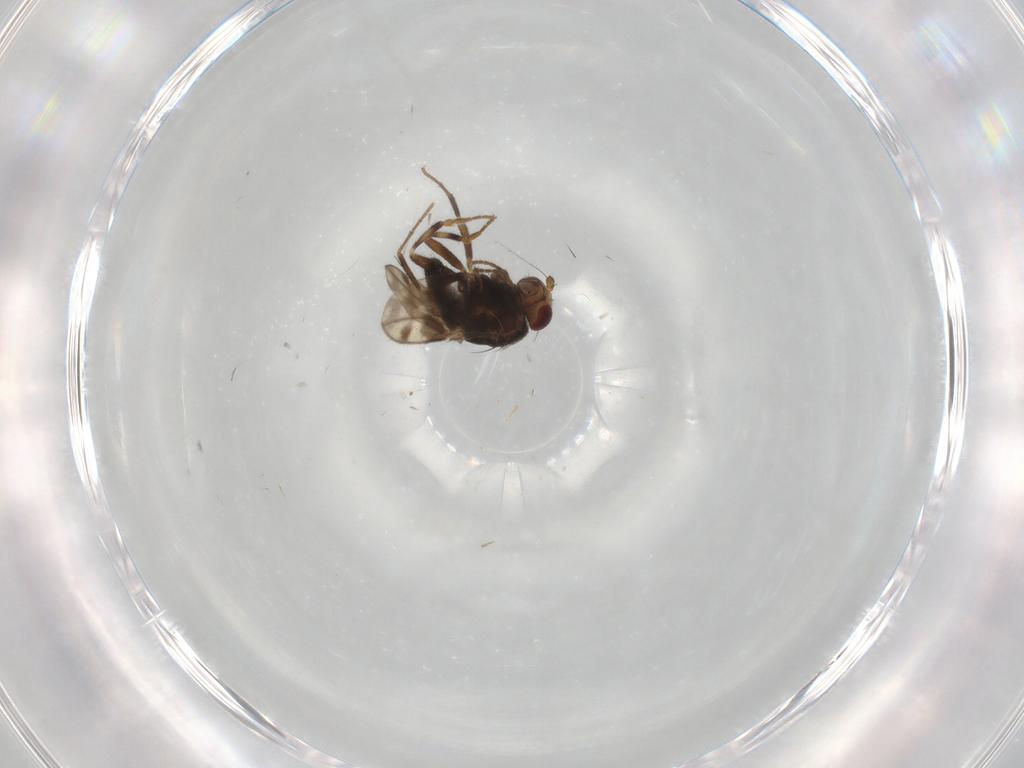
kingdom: Animalia
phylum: Arthropoda
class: Insecta
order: Diptera
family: Sphaeroceridae
